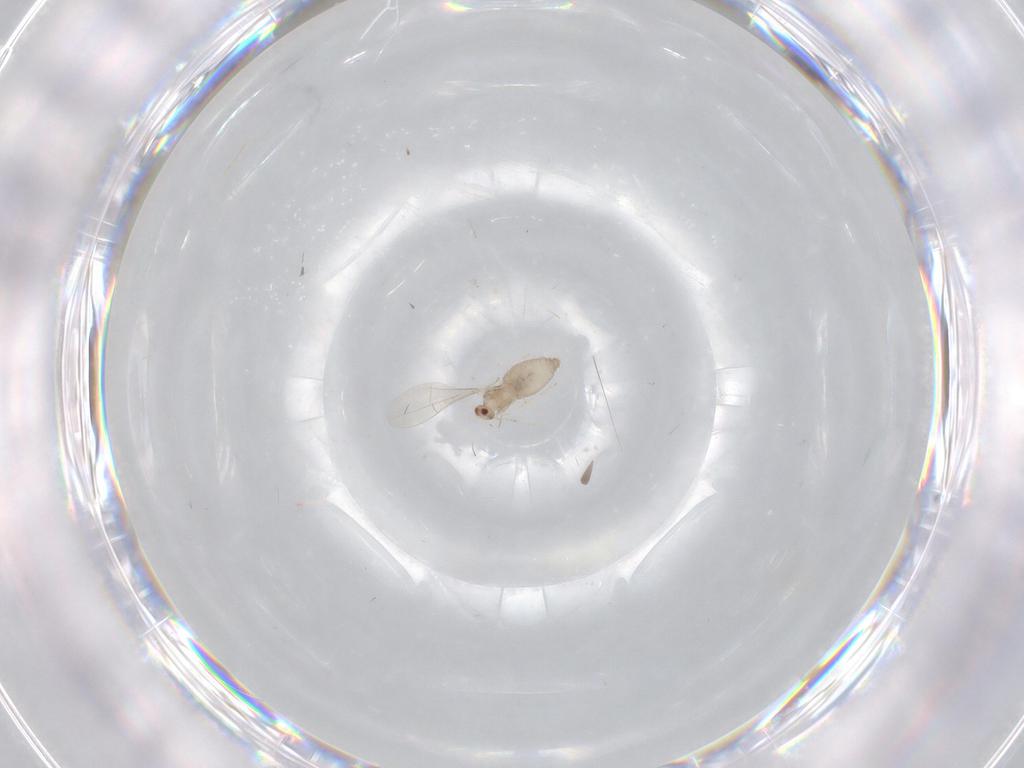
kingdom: Animalia
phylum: Arthropoda
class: Insecta
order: Diptera
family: Cecidomyiidae
